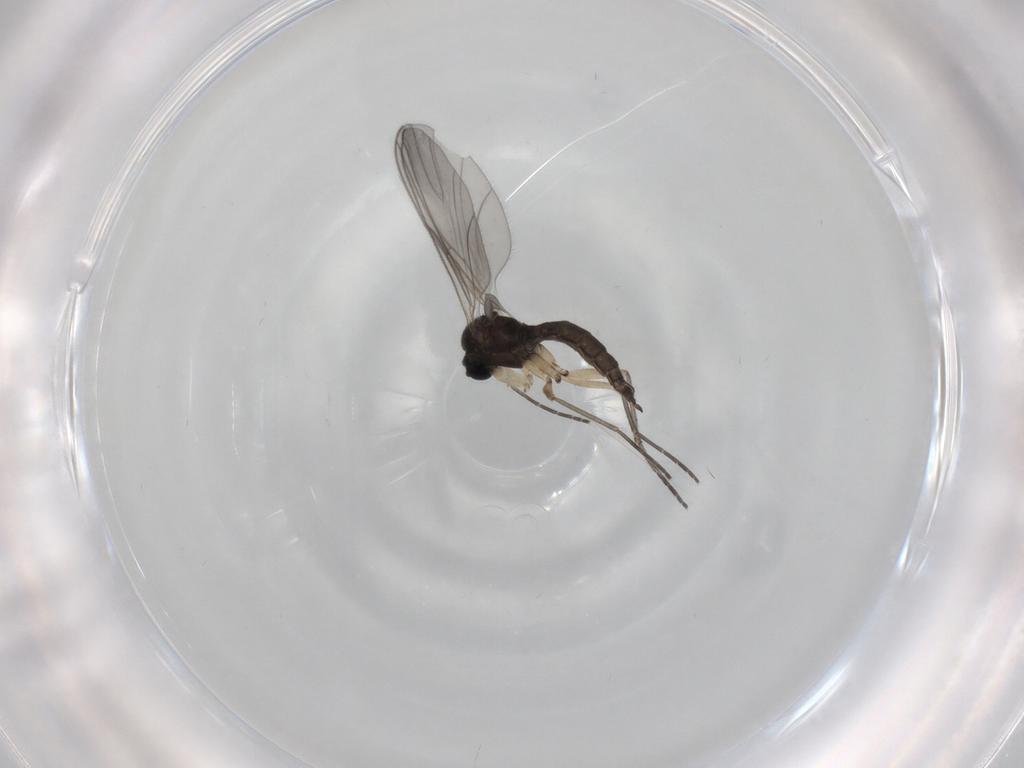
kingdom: Animalia
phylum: Arthropoda
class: Insecta
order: Diptera
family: Sciaridae
